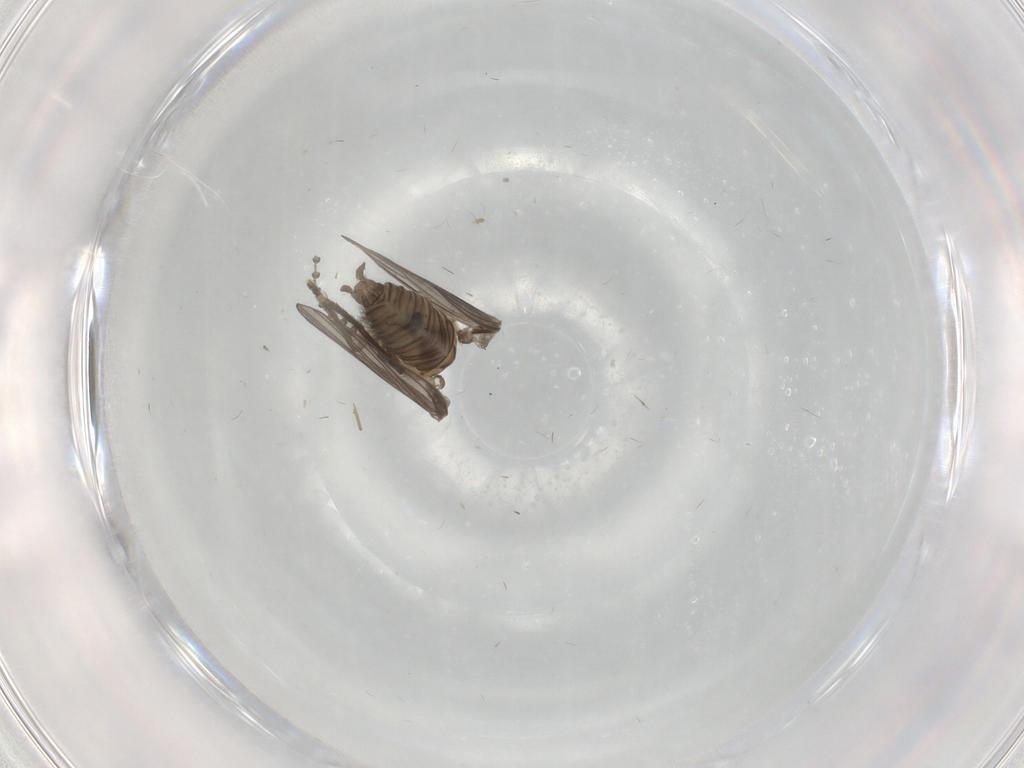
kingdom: Animalia
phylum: Arthropoda
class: Insecta
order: Diptera
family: Psychodidae
